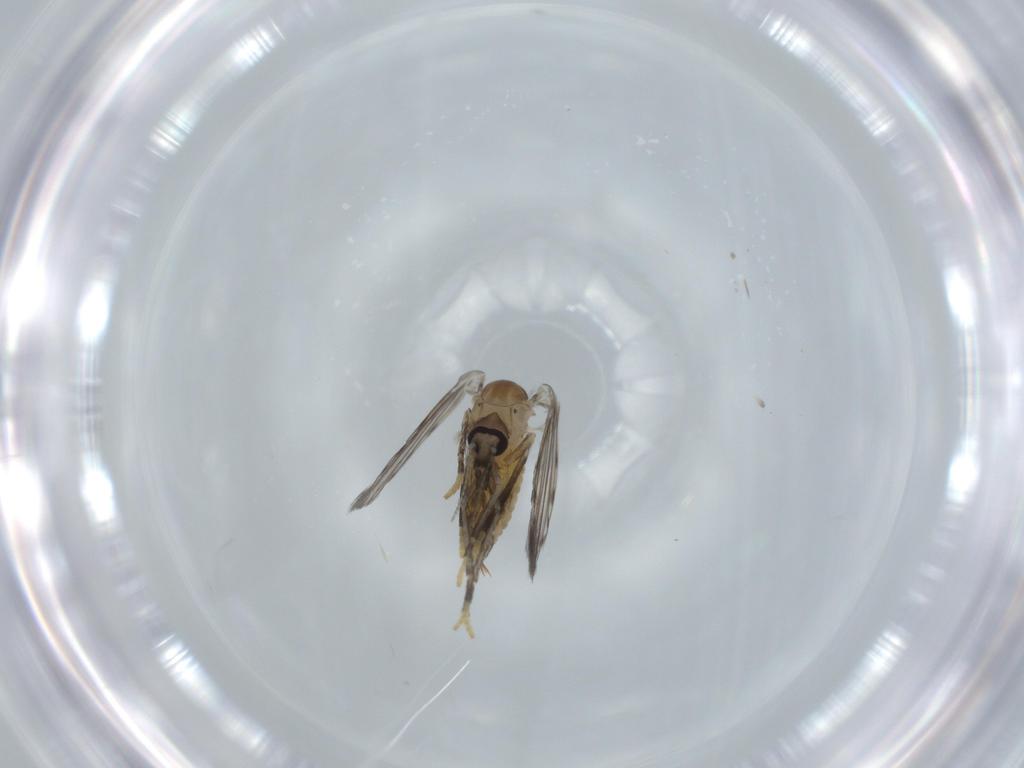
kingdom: Animalia
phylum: Arthropoda
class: Insecta
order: Diptera
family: Psychodidae
